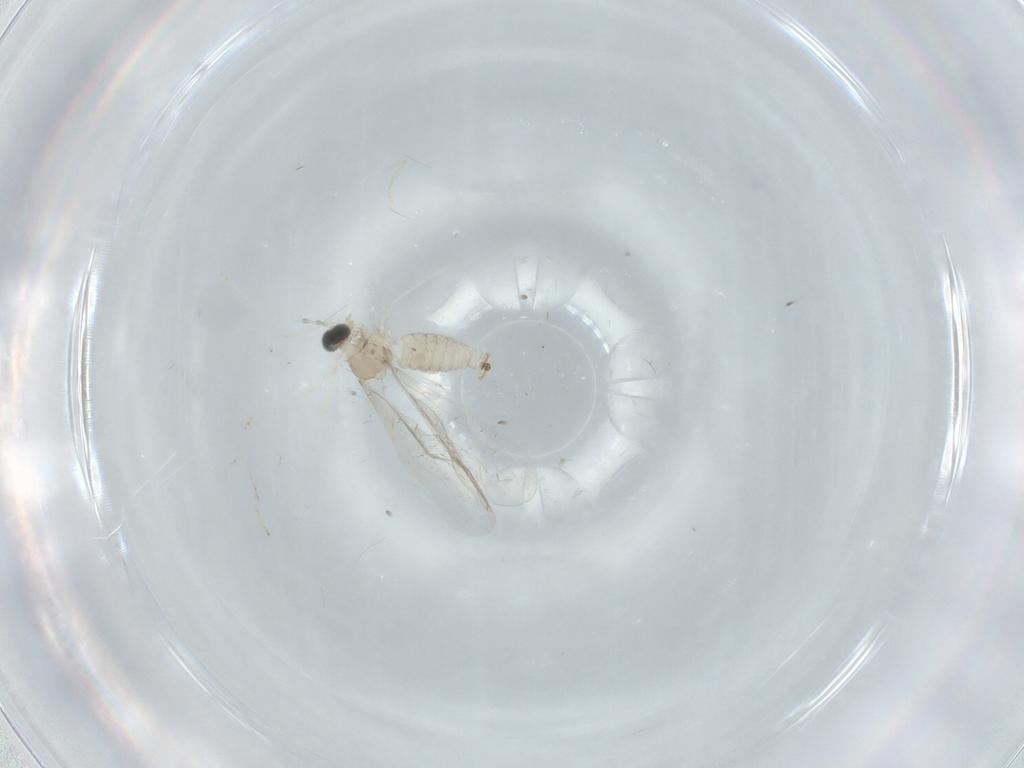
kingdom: Animalia
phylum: Arthropoda
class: Insecta
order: Diptera
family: Cecidomyiidae
